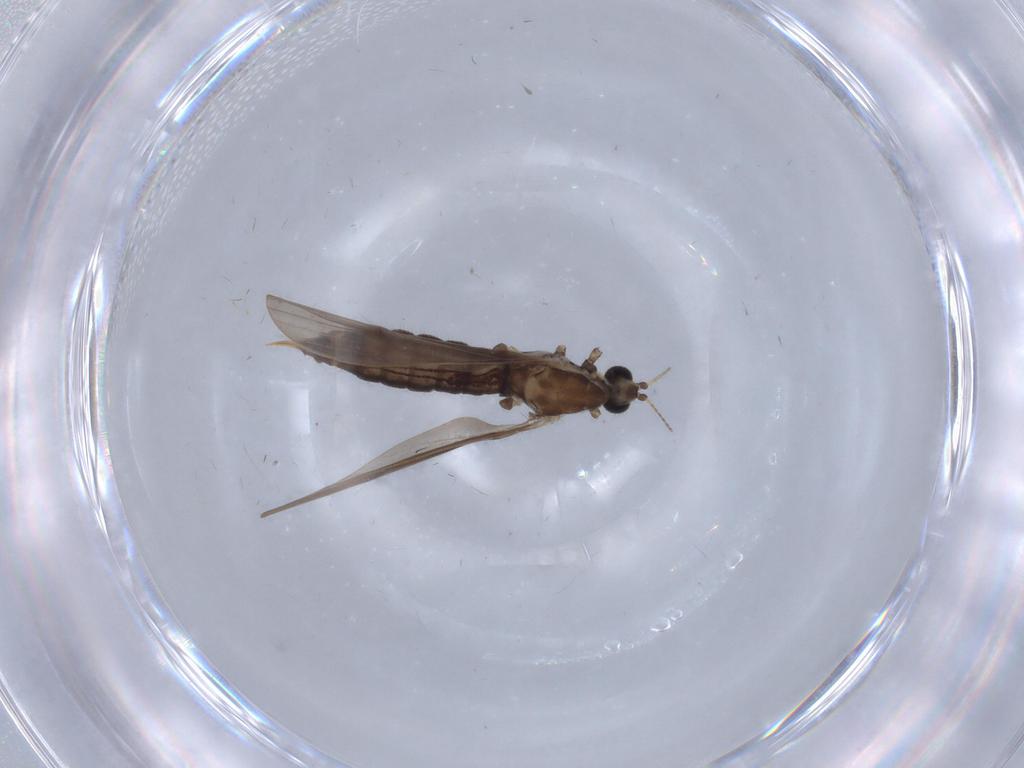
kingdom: Animalia
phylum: Arthropoda
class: Insecta
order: Diptera
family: Limoniidae
